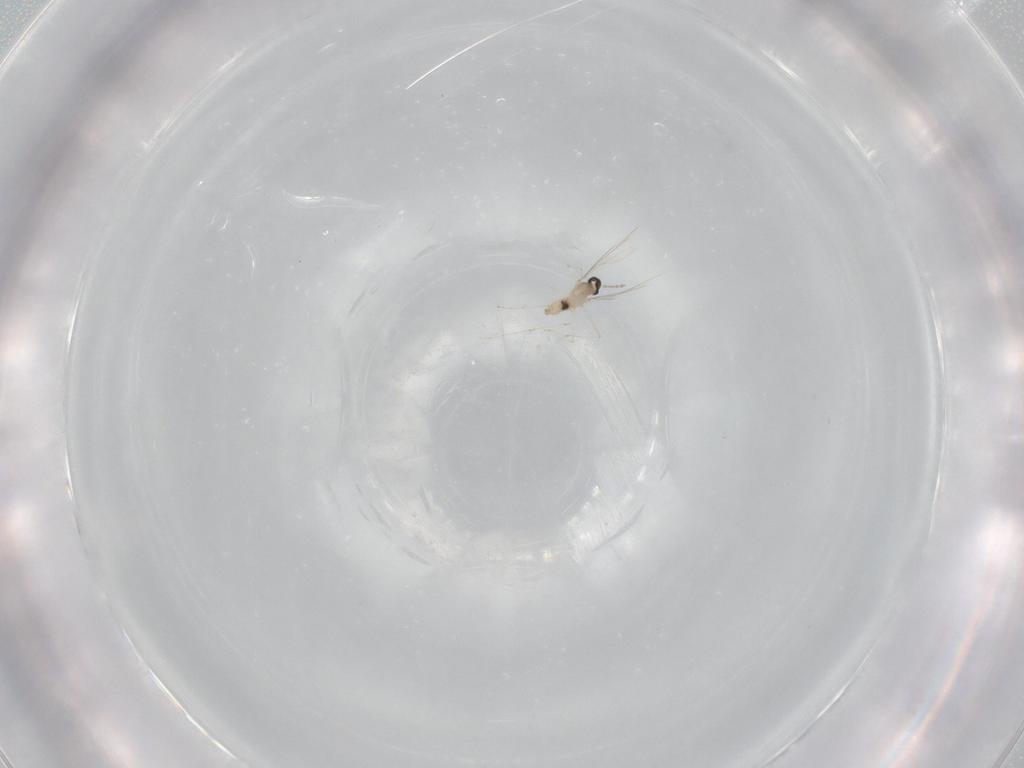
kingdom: Animalia
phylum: Arthropoda
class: Insecta
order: Diptera
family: Cecidomyiidae
